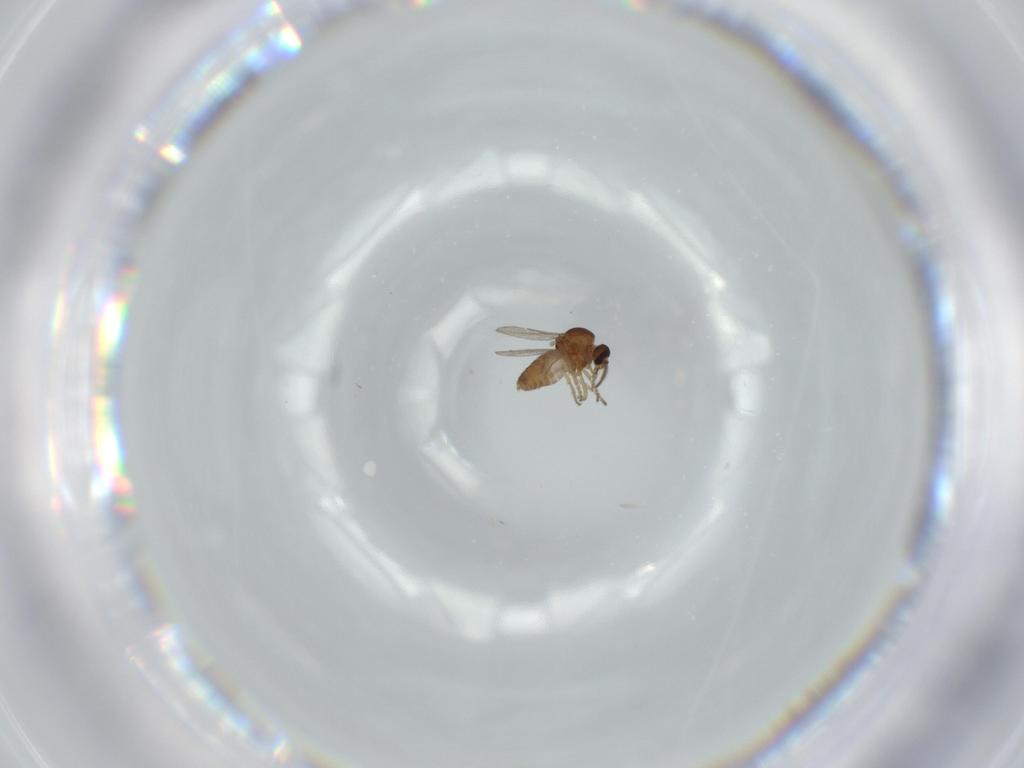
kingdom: Animalia
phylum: Arthropoda
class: Insecta
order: Diptera
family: Ceratopogonidae
